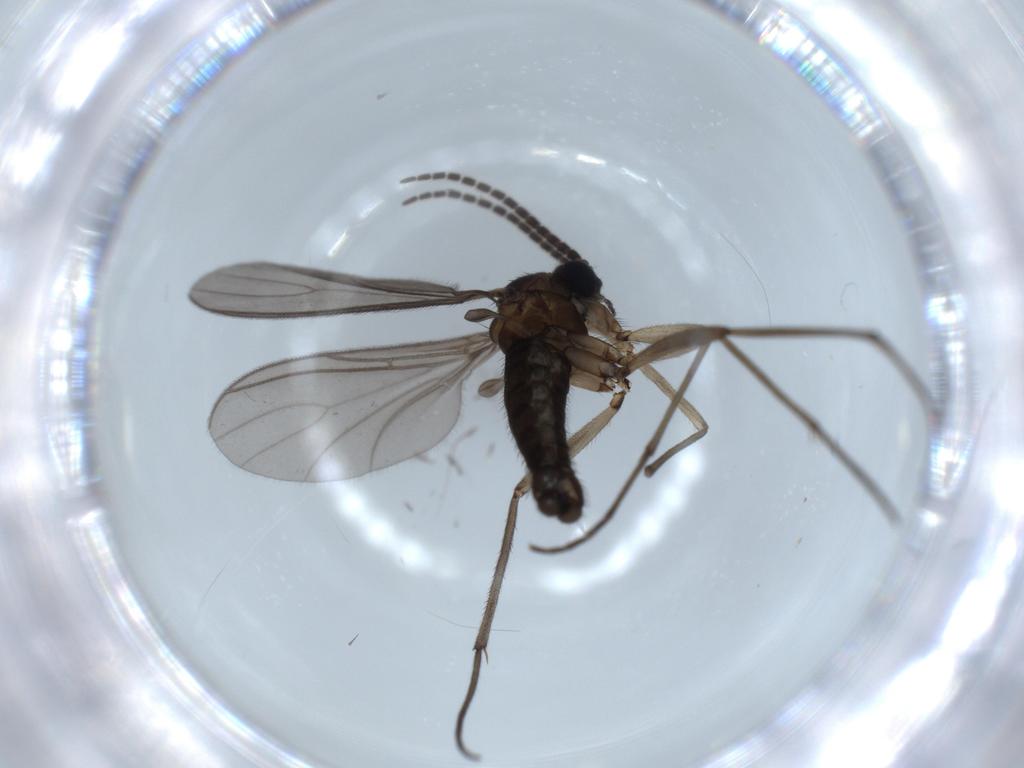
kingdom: Animalia
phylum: Arthropoda
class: Insecta
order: Diptera
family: Sciaridae
